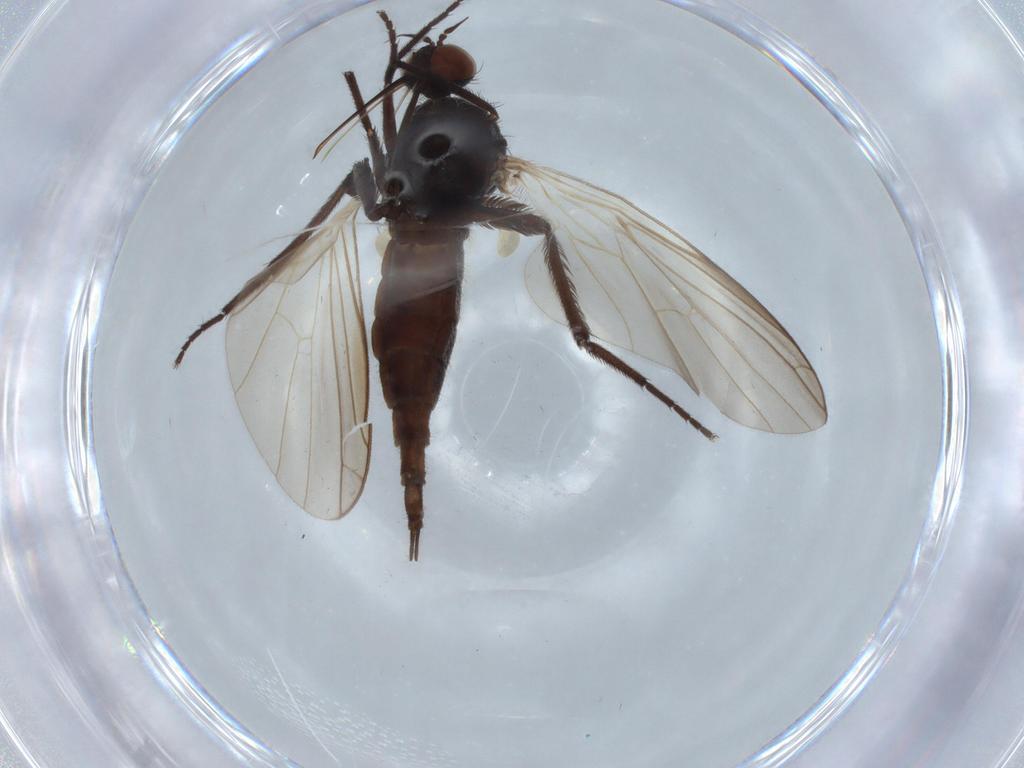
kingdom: Animalia
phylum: Arthropoda
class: Insecta
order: Diptera
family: Empididae
